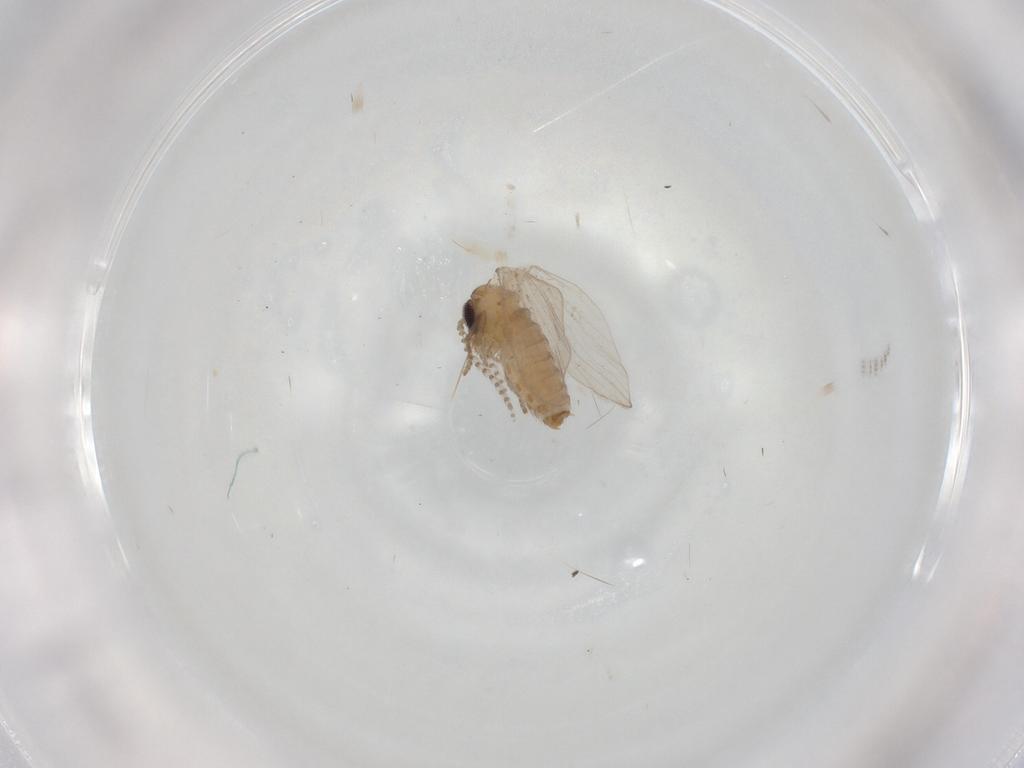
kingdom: Animalia
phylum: Arthropoda
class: Insecta
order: Diptera
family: Psychodidae
